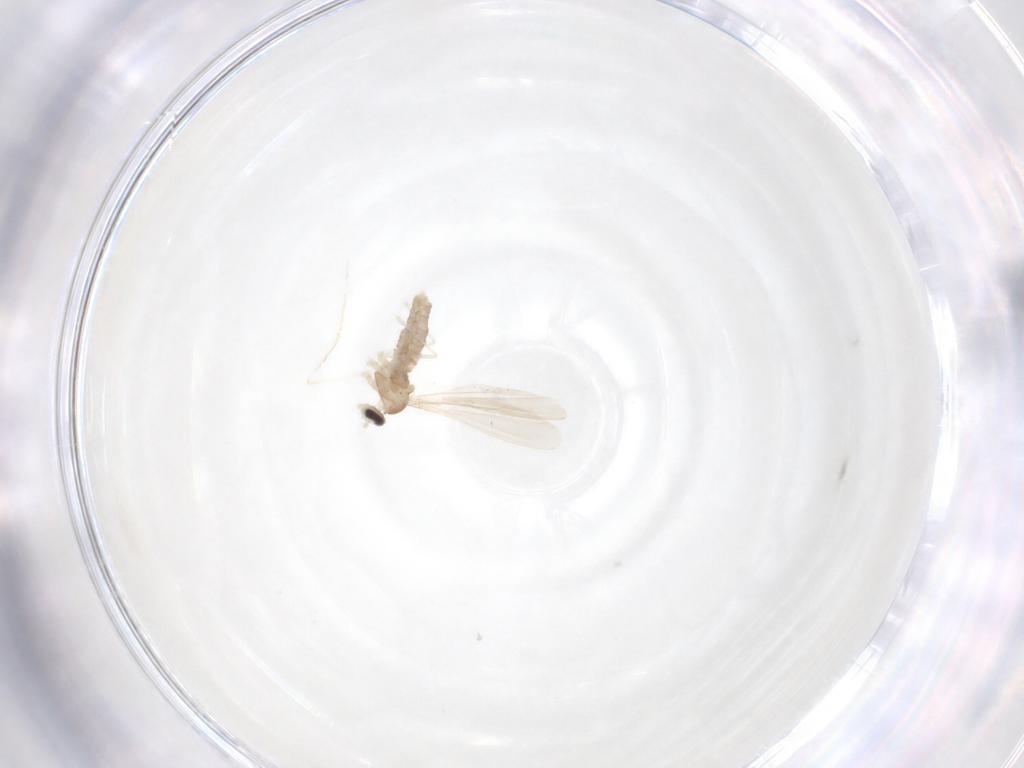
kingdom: Animalia
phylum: Arthropoda
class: Insecta
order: Diptera
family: Cecidomyiidae
